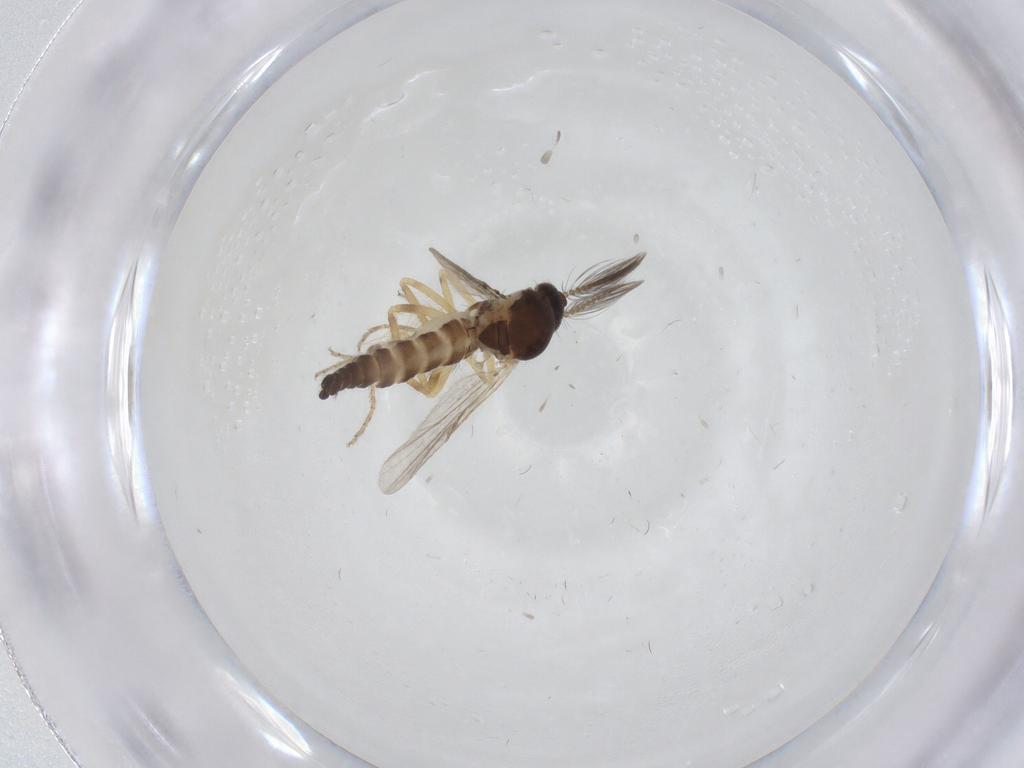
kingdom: Animalia
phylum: Arthropoda
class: Insecta
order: Diptera
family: Ceratopogonidae
